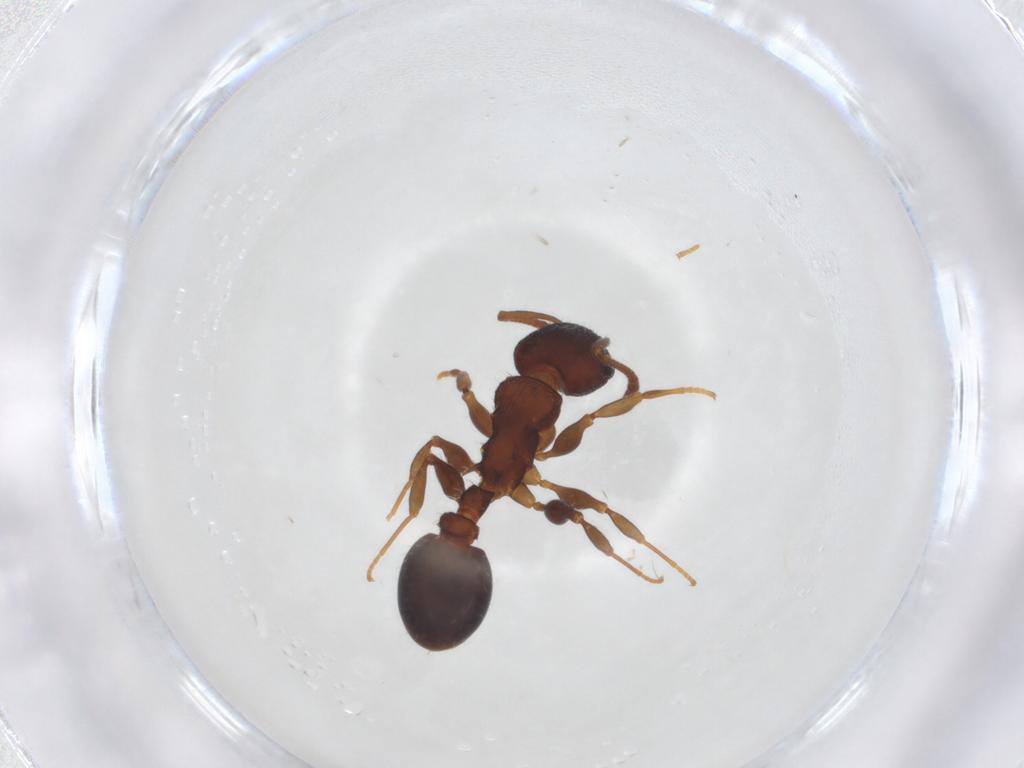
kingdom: Animalia
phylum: Arthropoda
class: Insecta
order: Hymenoptera
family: Formicidae
